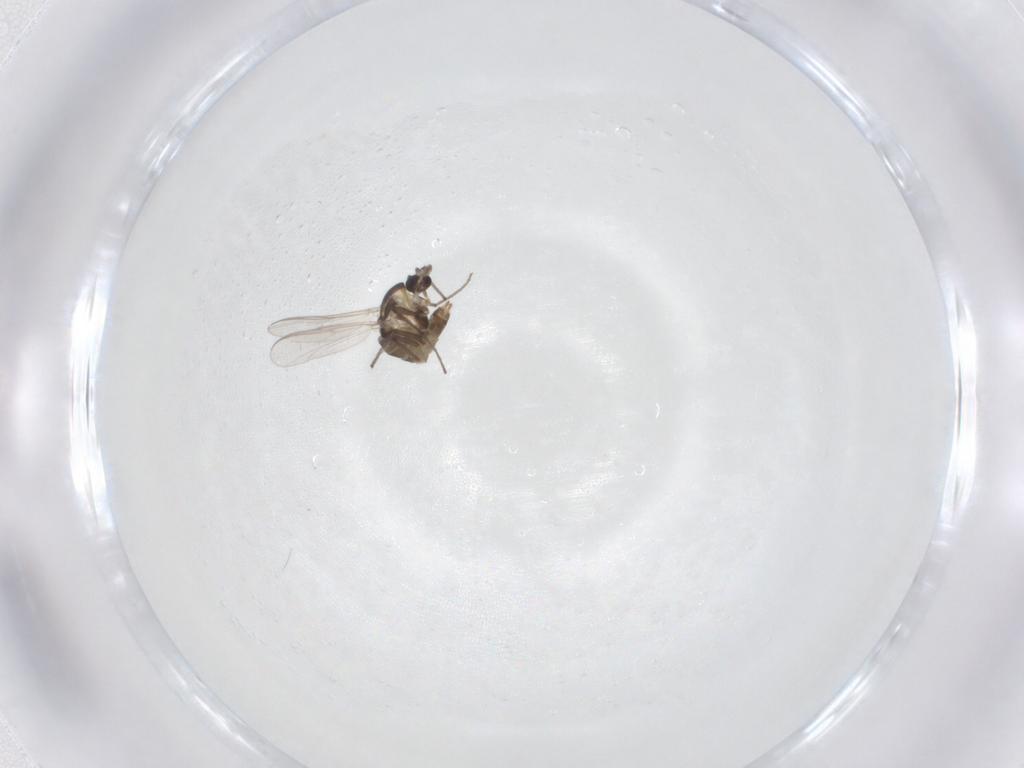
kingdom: Animalia
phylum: Arthropoda
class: Insecta
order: Diptera
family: Chironomidae
